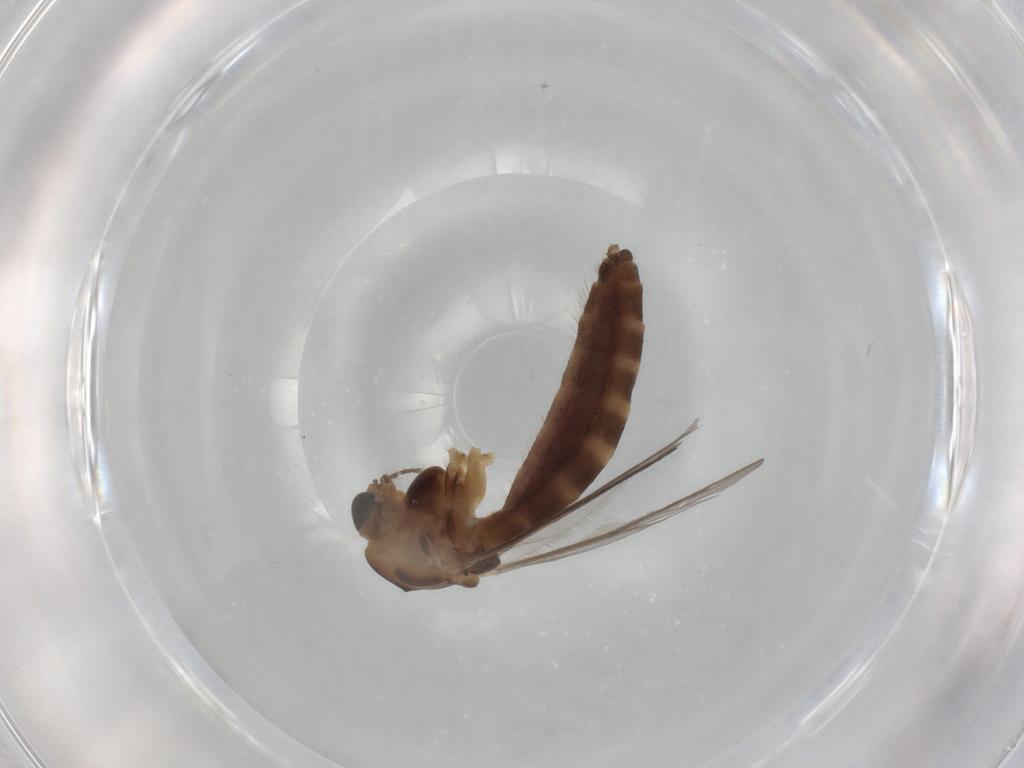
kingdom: Animalia
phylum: Arthropoda
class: Insecta
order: Diptera
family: Chironomidae
